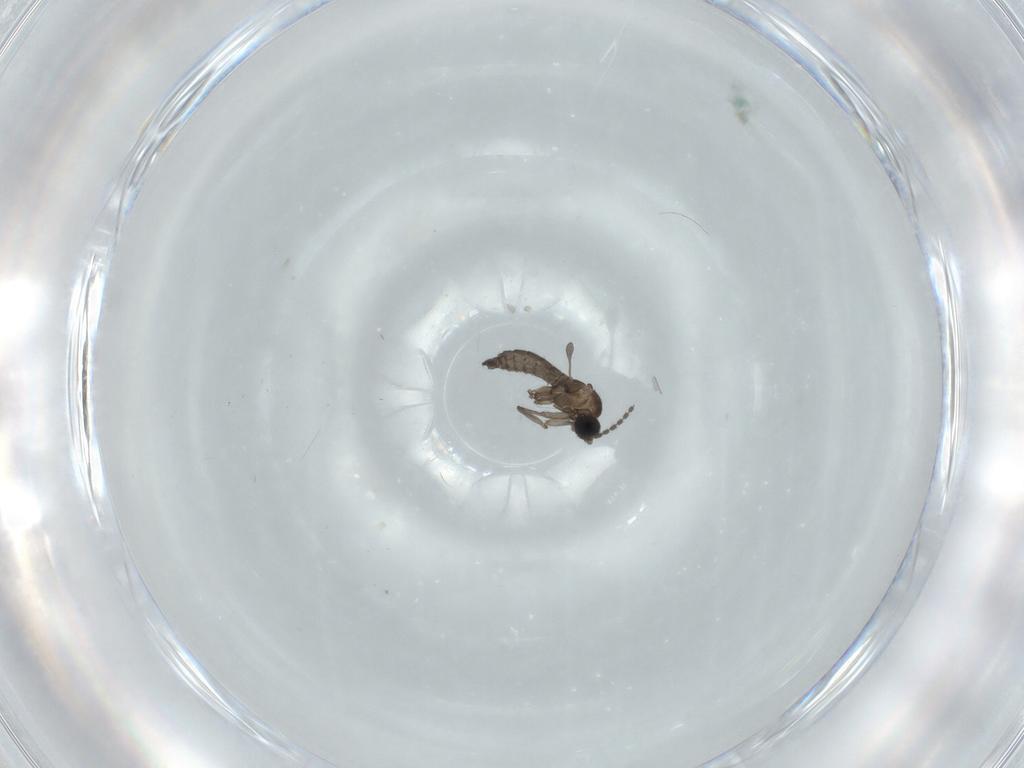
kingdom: Animalia
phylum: Arthropoda
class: Insecta
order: Diptera
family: Sciaridae
